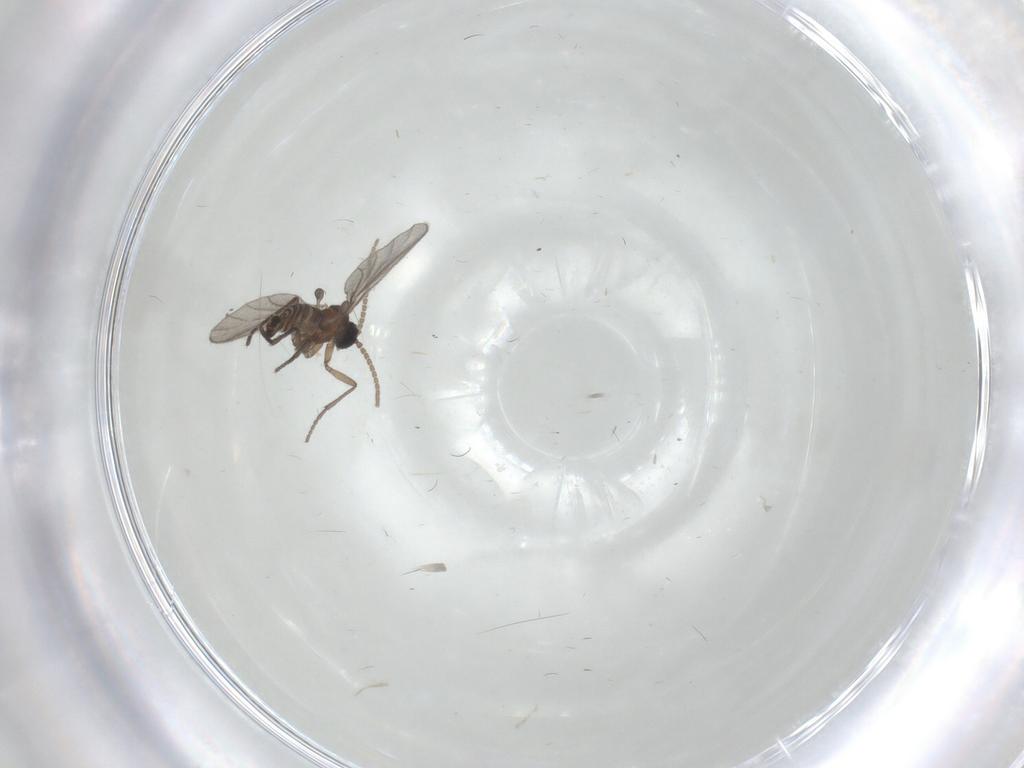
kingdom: Animalia
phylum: Arthropoda
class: Insecta
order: Diptera
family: Sciaridae
